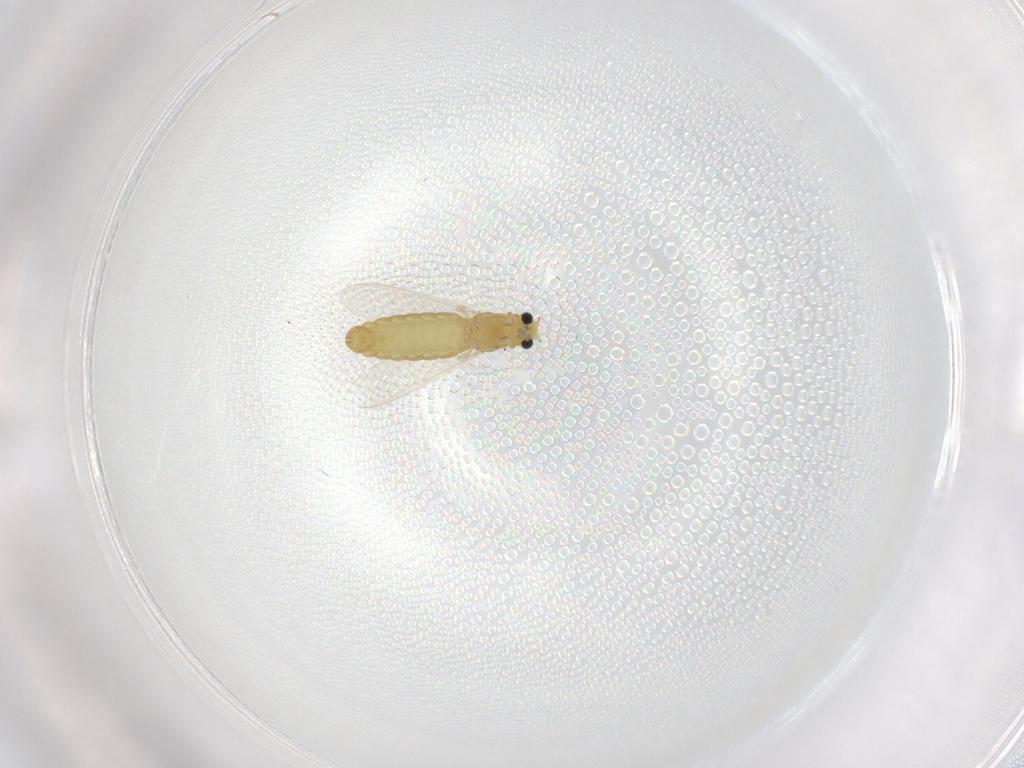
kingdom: Animalia
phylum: Arthropoda
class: Insecta
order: Diptera
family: Chironomidae
